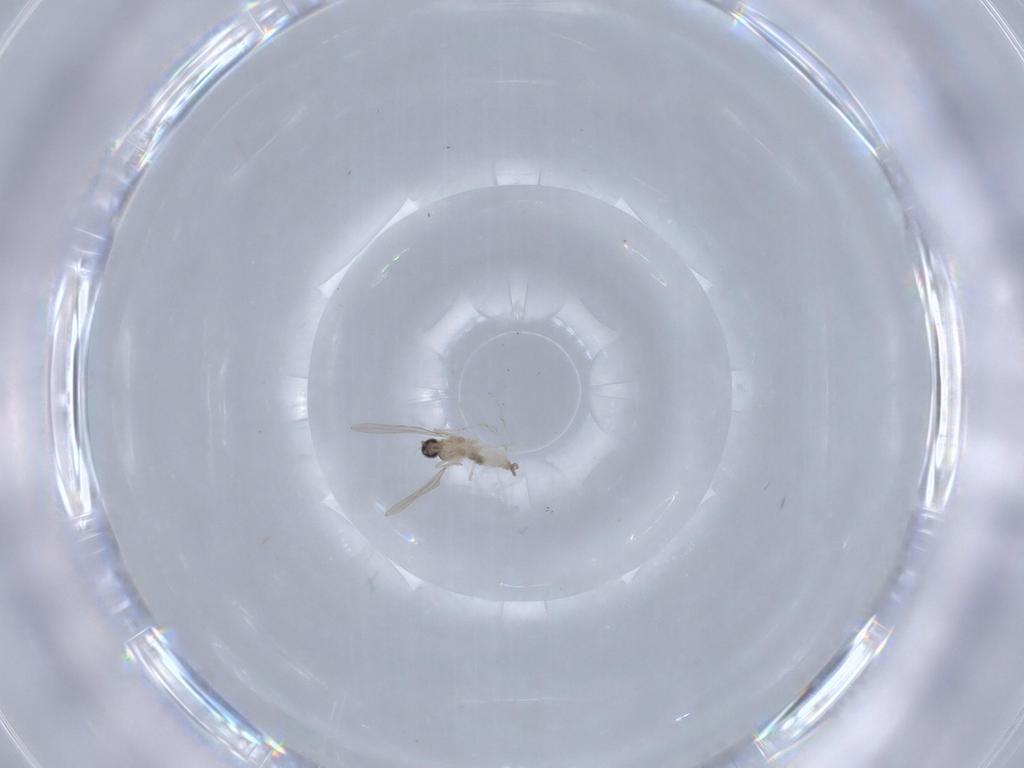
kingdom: Animalia
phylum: Arthropoda
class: Insecta
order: Diptera
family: Cecidomyiidae
